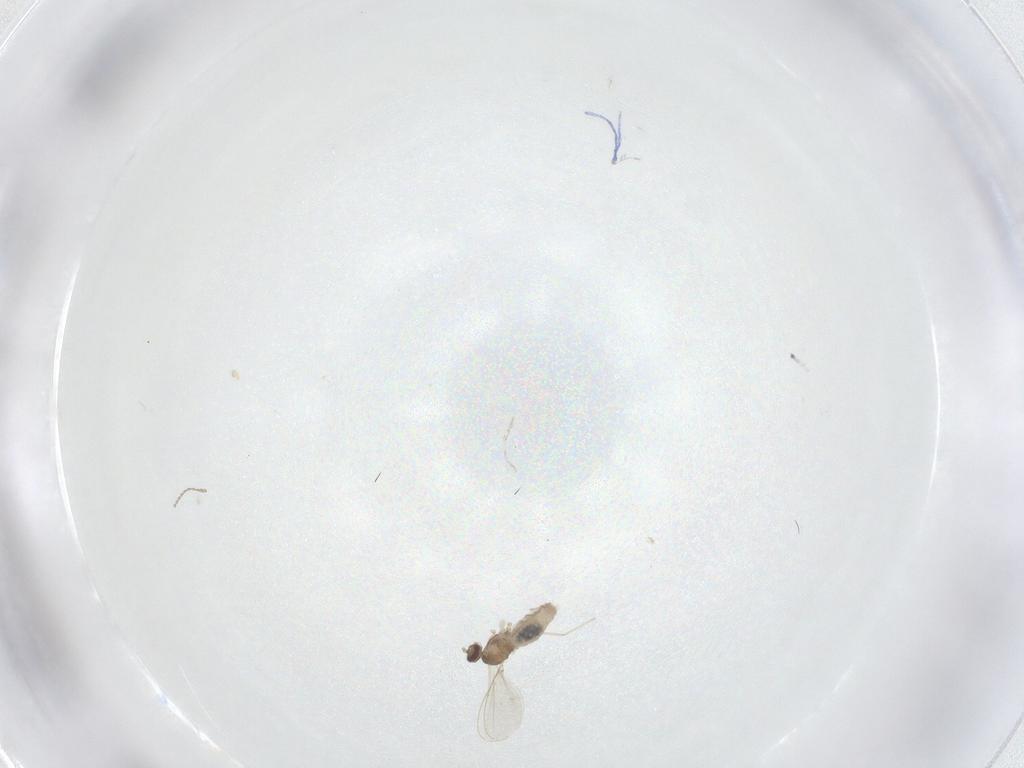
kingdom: Animalia
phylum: Arthropoda
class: Insecta
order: Diptera
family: Cecidomyiidae
